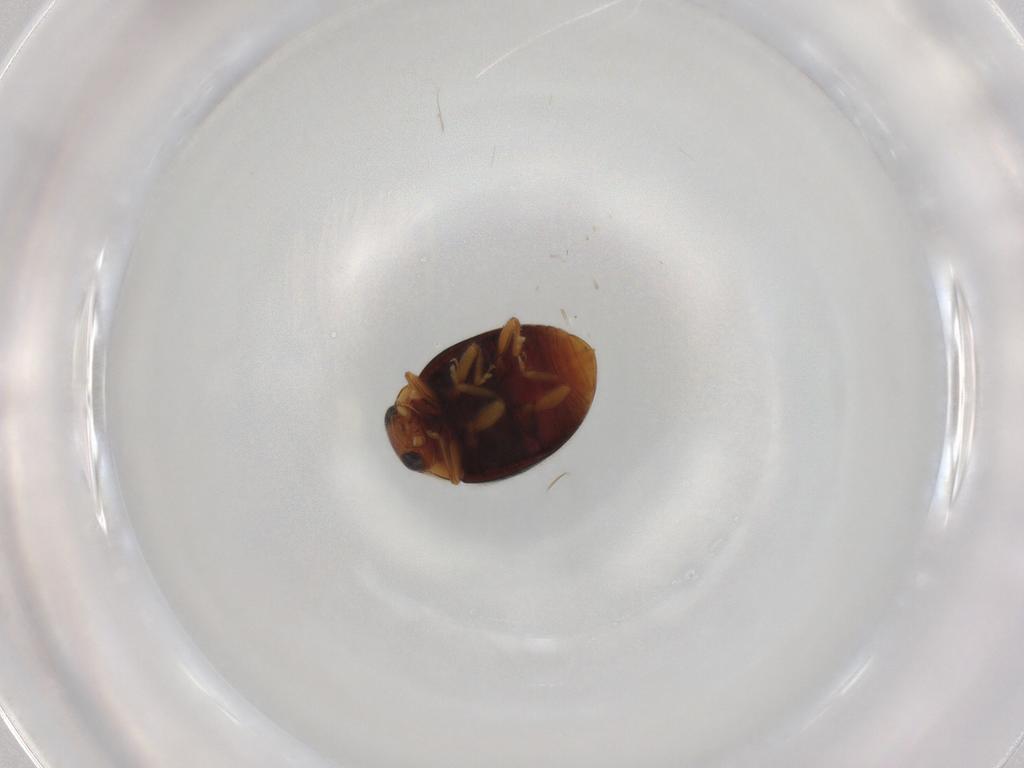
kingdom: Animalia
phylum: Arthropoda
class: Insecta
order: Coleoptera
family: Coccinellidae
